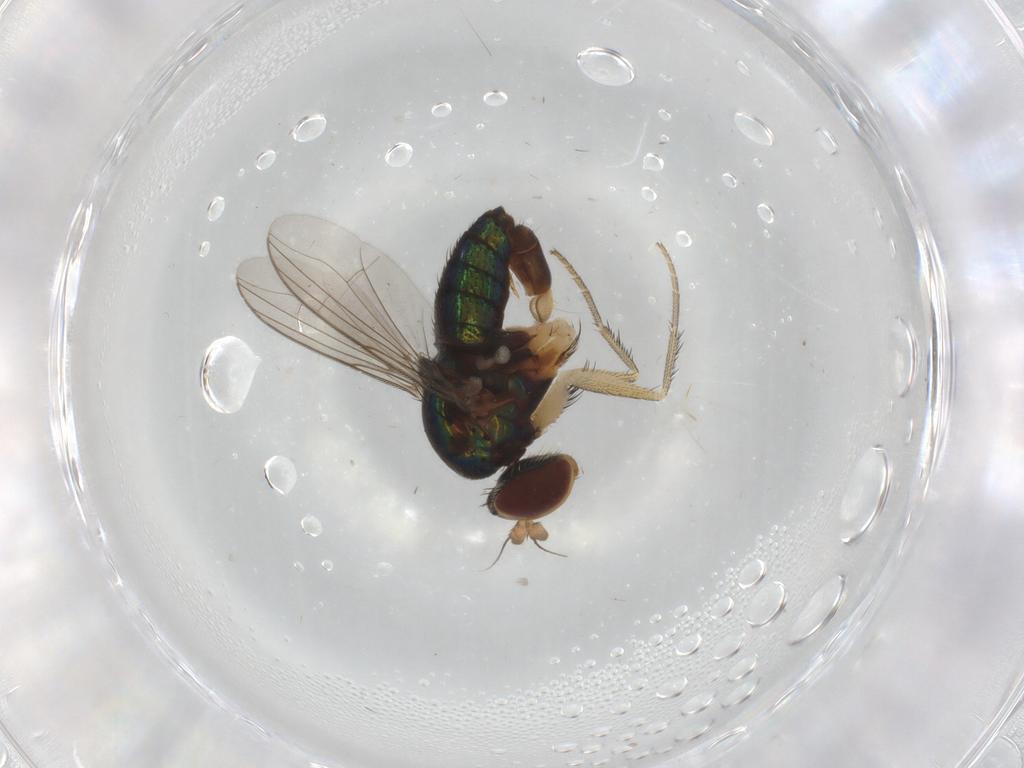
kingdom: Animalia
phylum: Arthropoda
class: Insecta
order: Diptera
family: Dolichopodidae
